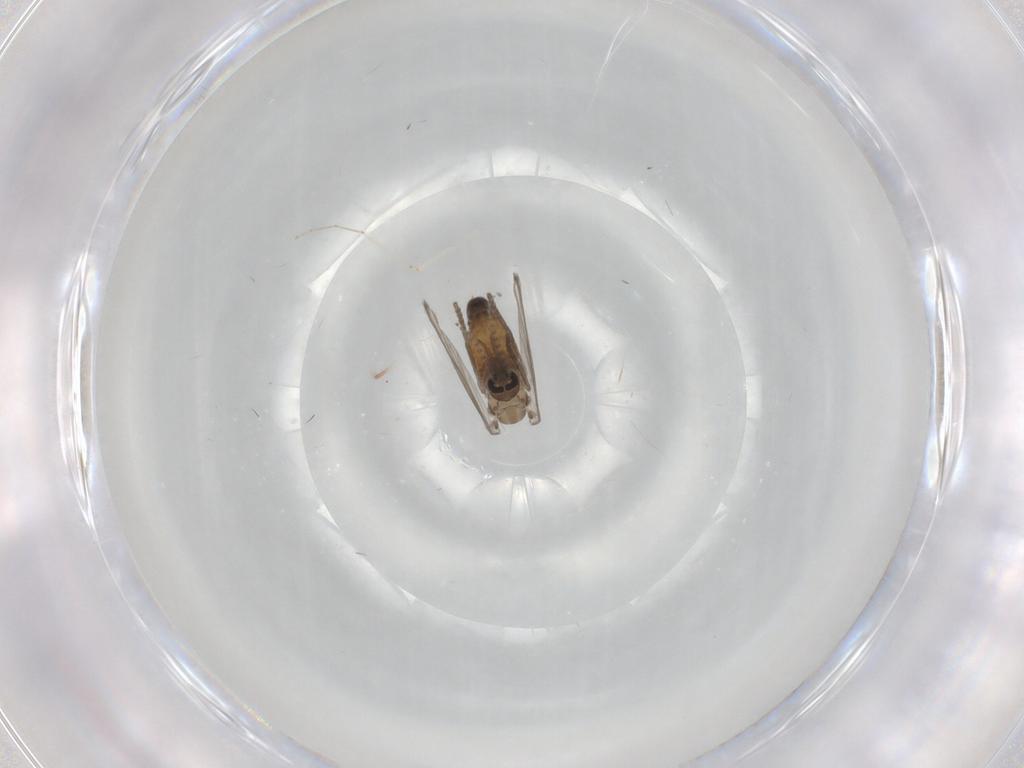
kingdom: Animalia
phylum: Arthropoda
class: Insecta
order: Diptera
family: Psychodidae
